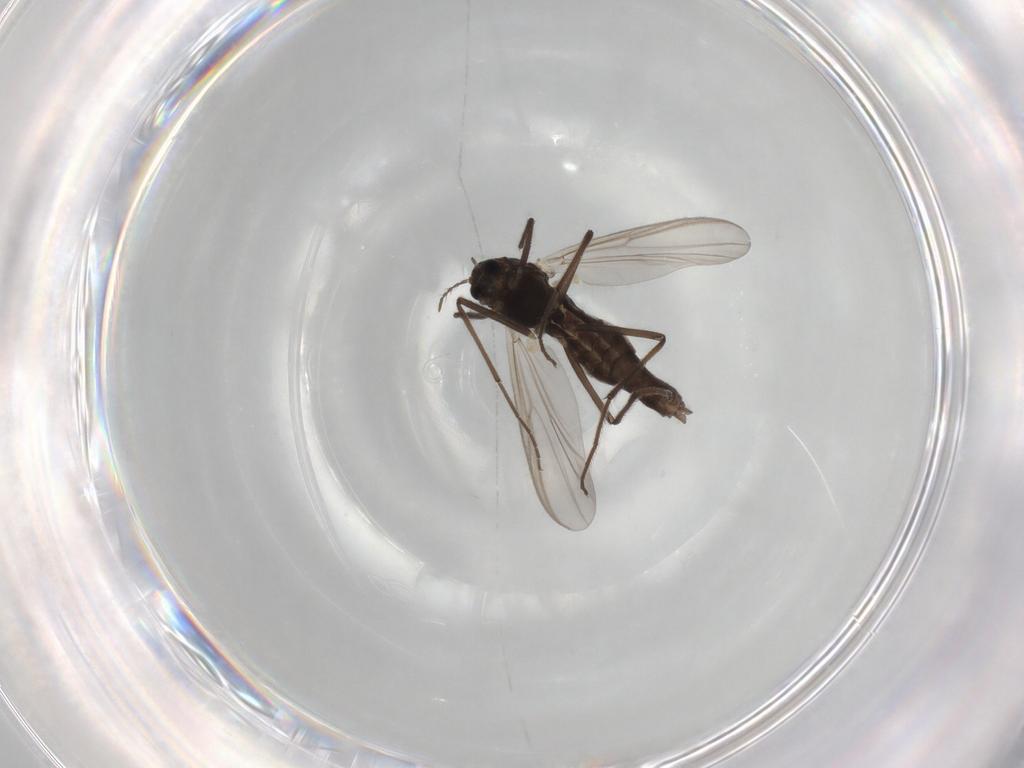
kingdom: Animalia
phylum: Arthropoda
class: Insecta
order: Diptera
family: Chironomidae
